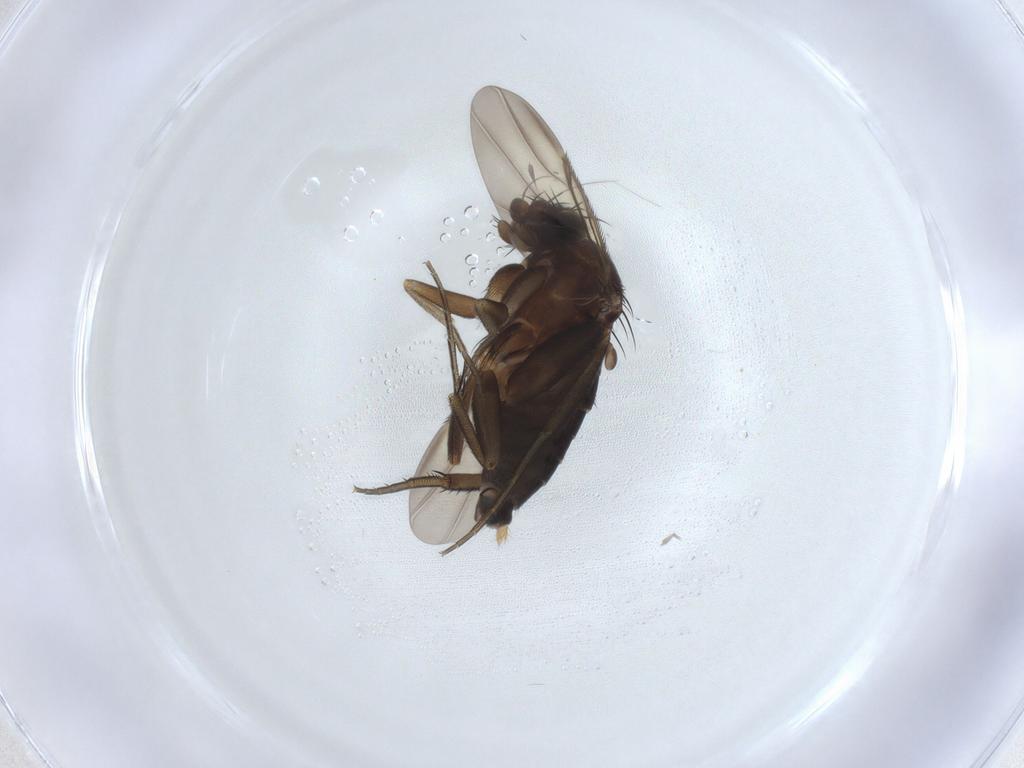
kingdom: Animalia
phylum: Arthropoda
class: Insecta
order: Diptera
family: Phoridae
